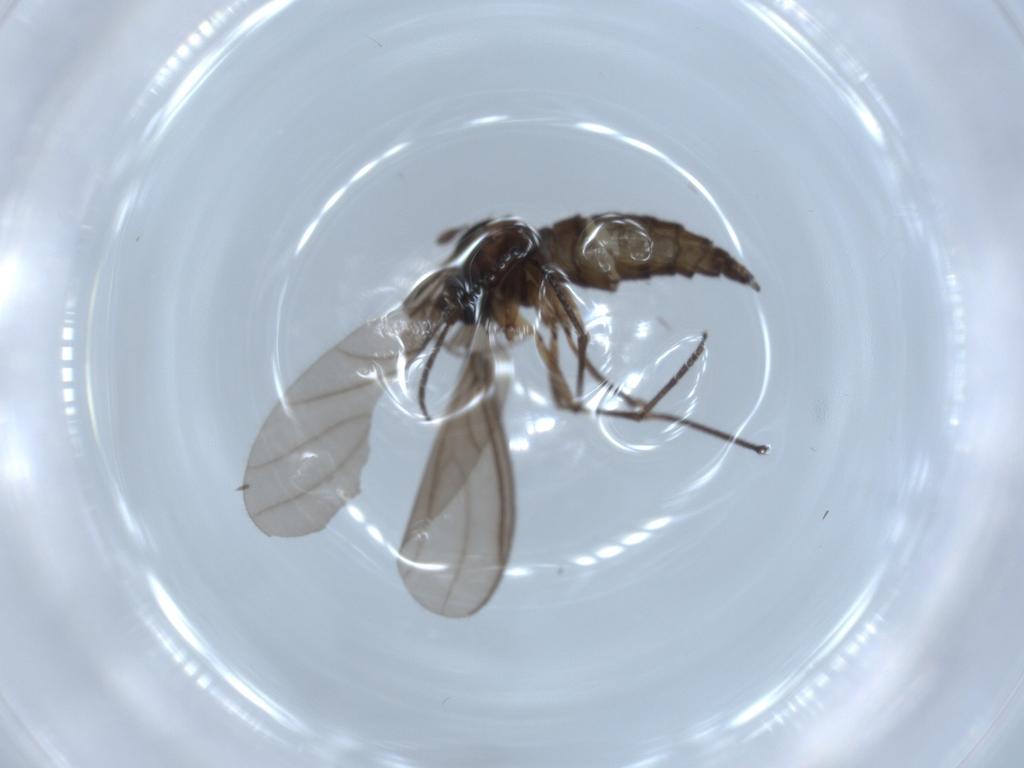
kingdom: Animalia
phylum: Arthropoda
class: Insecta
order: Diptera
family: Sciaridae
